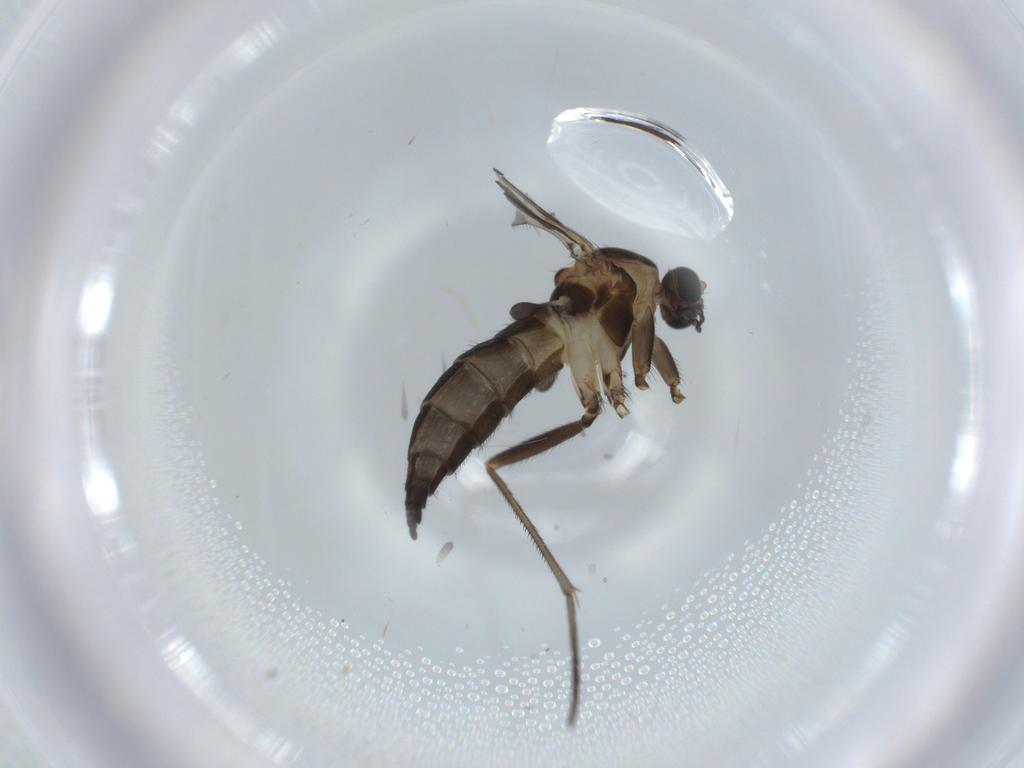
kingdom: Animalia
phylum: Arthropoda
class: Insecta
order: Diptera
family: Sciaridae
